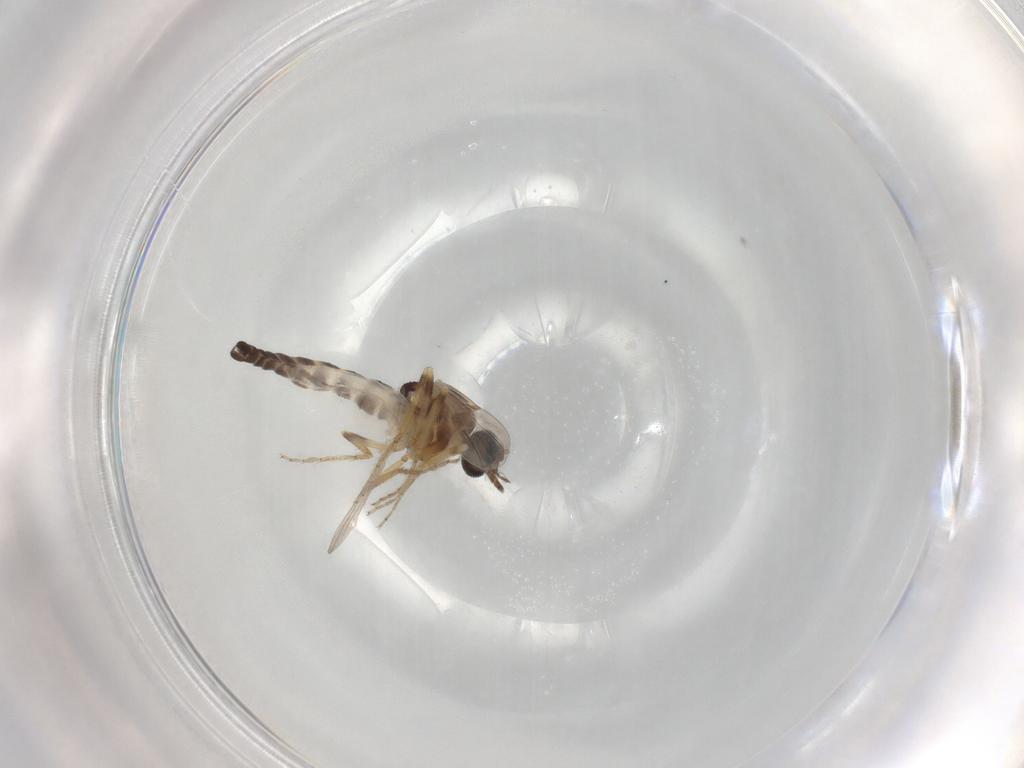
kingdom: Animalia
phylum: Arthropoda
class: Insecta
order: Diptera
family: Ceratopogonidae
